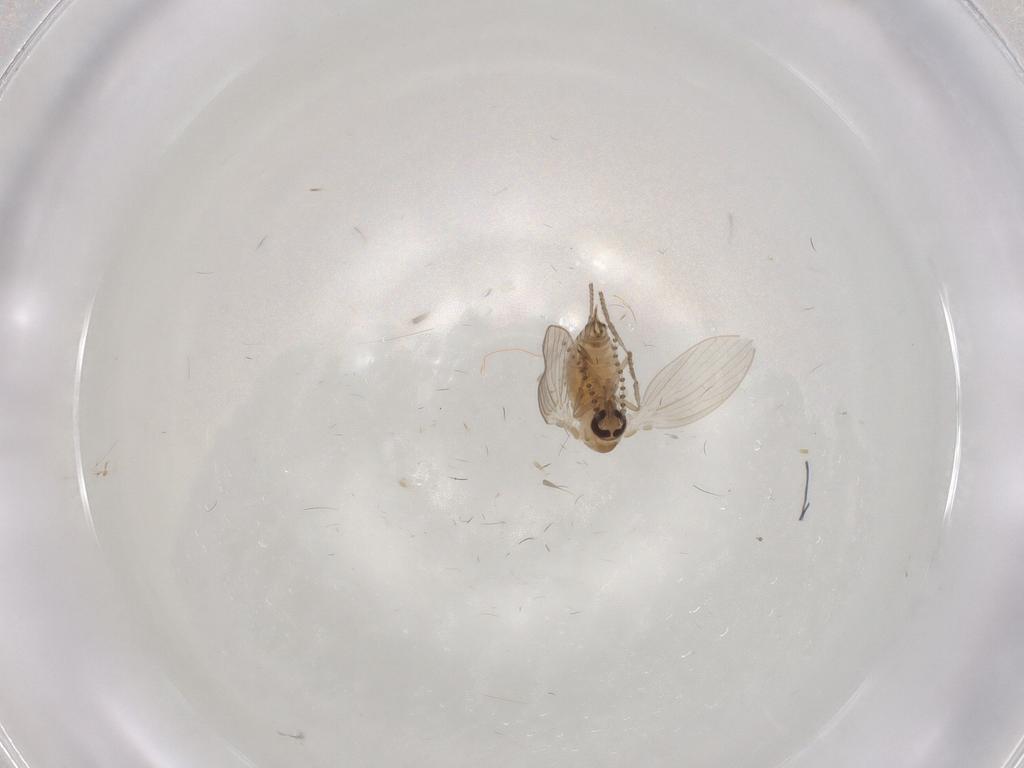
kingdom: Animalia
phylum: Arthropoda
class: Insecta
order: Diptera
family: Psychodidae
